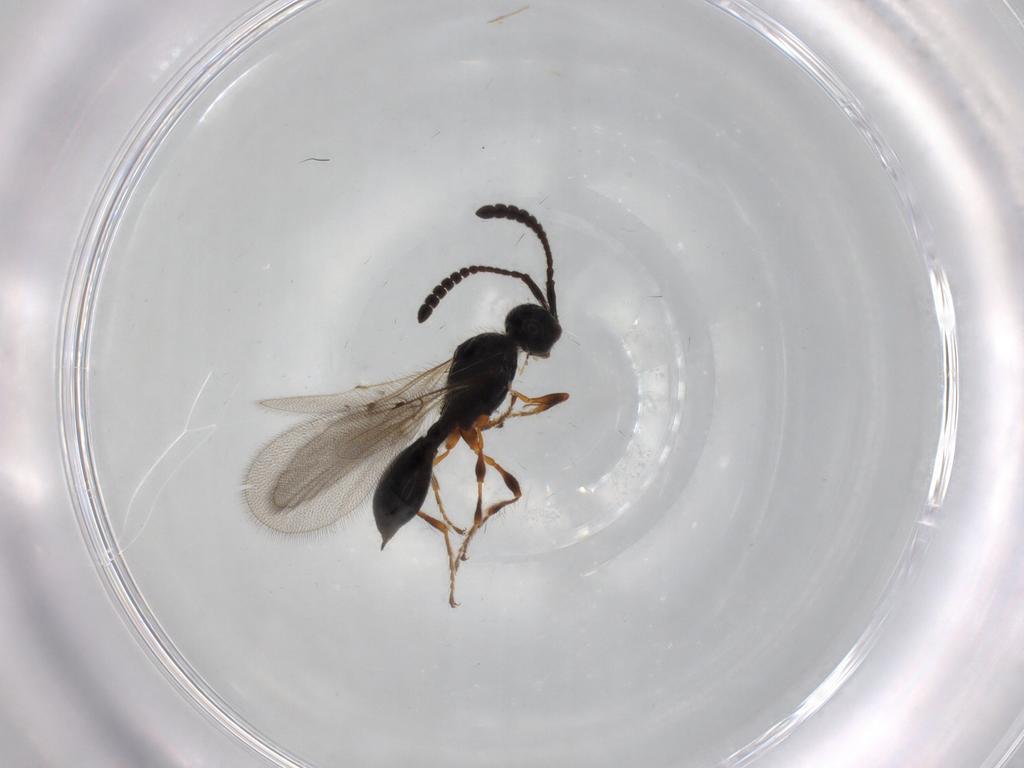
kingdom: Animalia
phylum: Arthropoda
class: Insecta
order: Hymenoptera
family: Diapriidae
